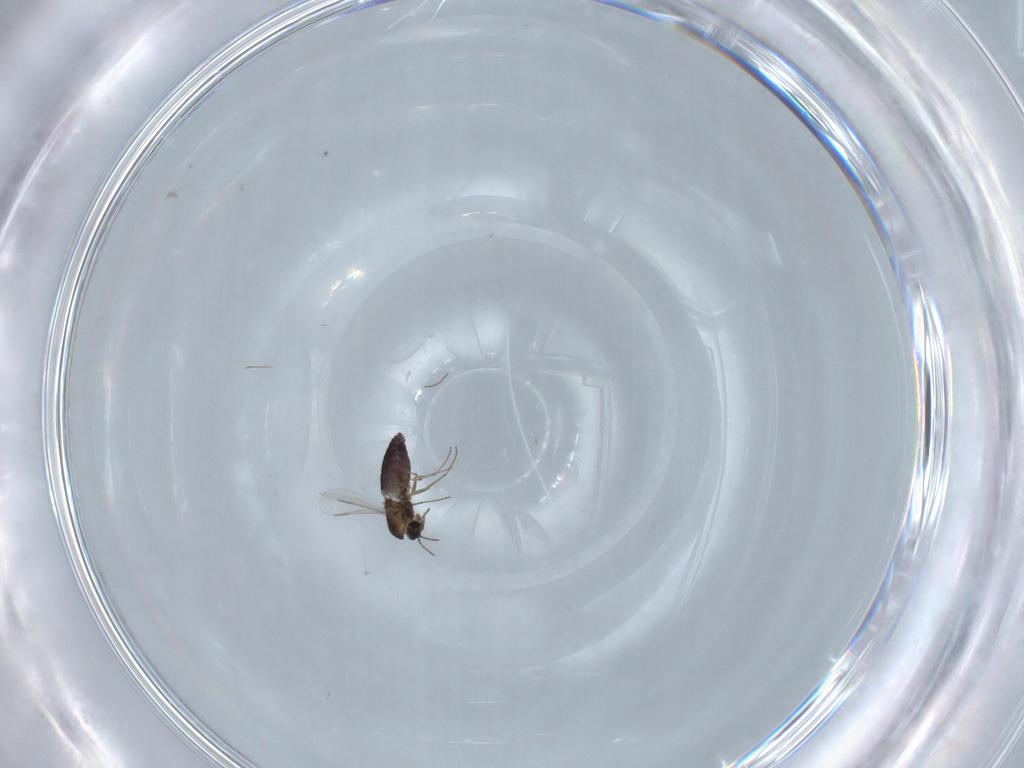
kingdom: Animalia
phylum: Arthropoda
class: Insecta
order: Diptera
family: Chironomidae
